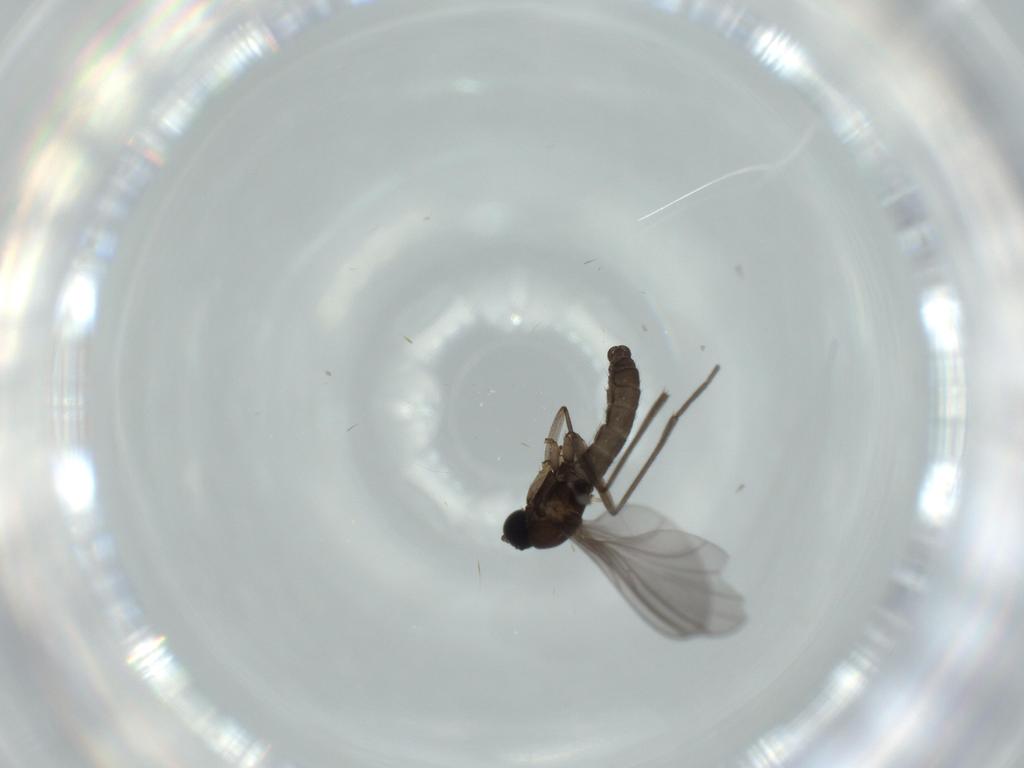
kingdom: Animalia
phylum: Arthropoda
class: Insecta
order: Diptera
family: Sciaridae
